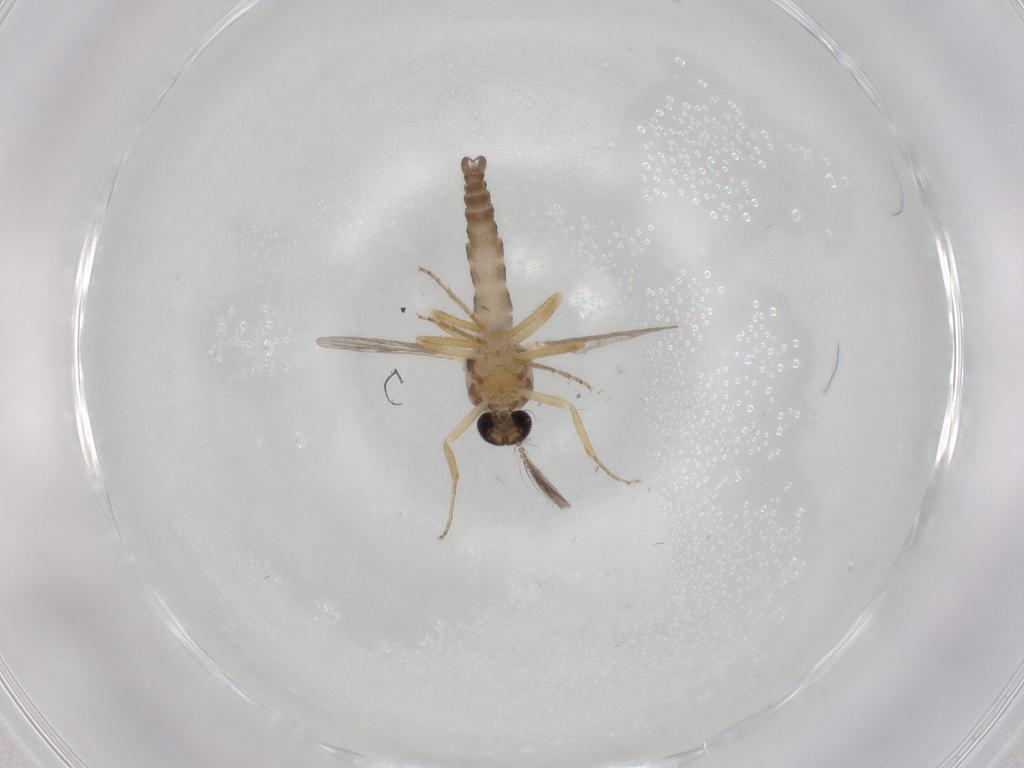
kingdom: Animalia
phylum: Arthropoda
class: Insecta
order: Diptera
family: Ceratopogonidae
